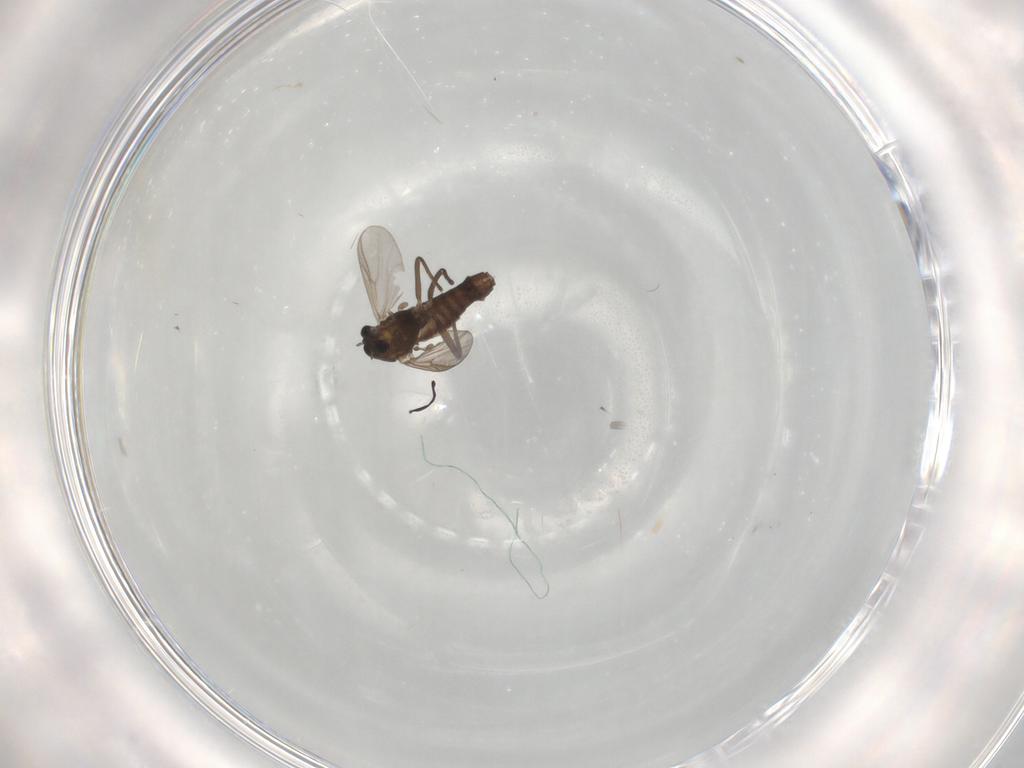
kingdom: Animalia
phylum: Arthropoda
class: Insecta
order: Diptera
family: Chironomidae
